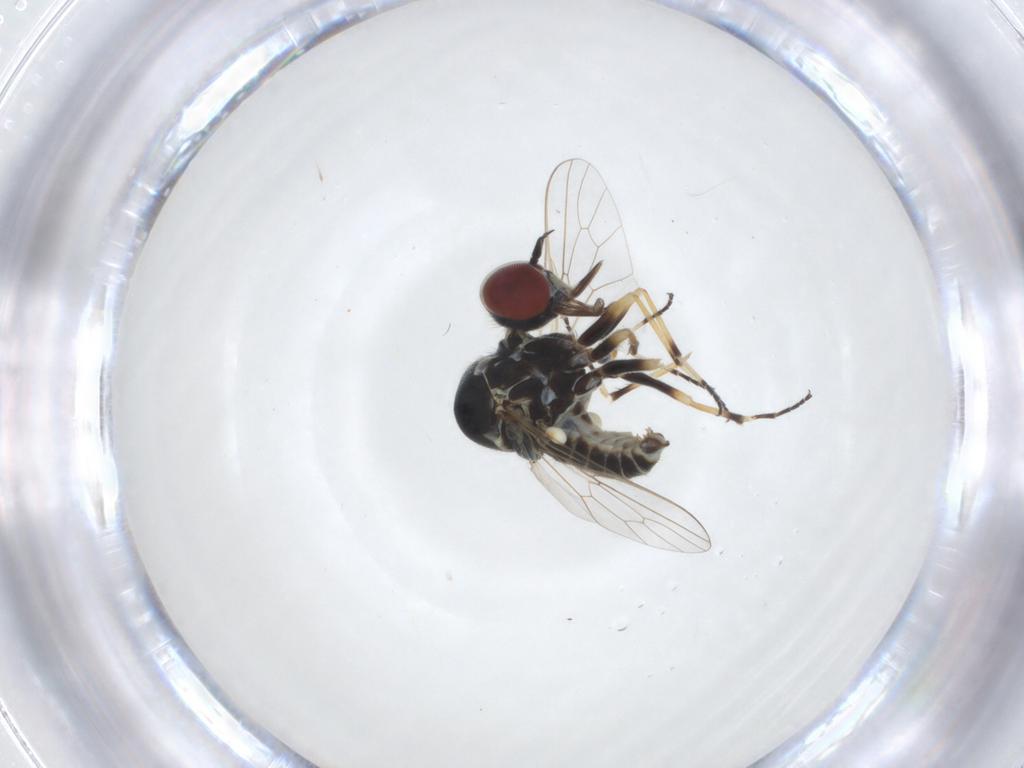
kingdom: Animalia
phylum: Arthropoda
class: Insecta
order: Diptera
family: Mythicomyiidae
